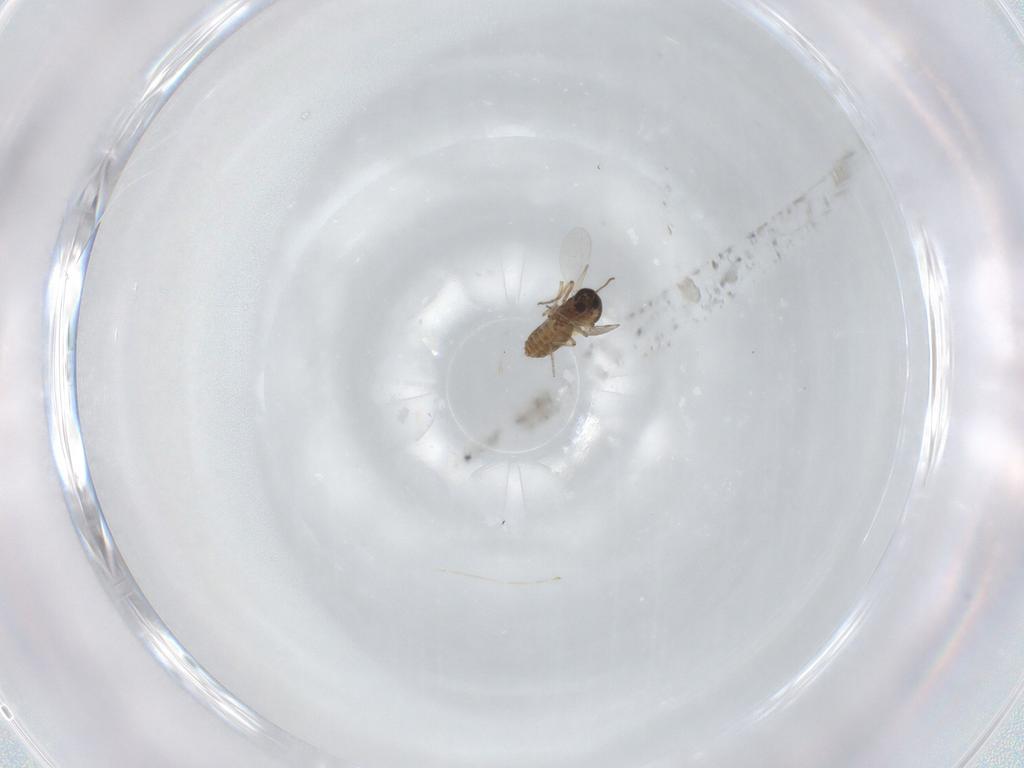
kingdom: Animalia
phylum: Arthropoda
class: Insecta
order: Diptera
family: Ceratopogonidae
